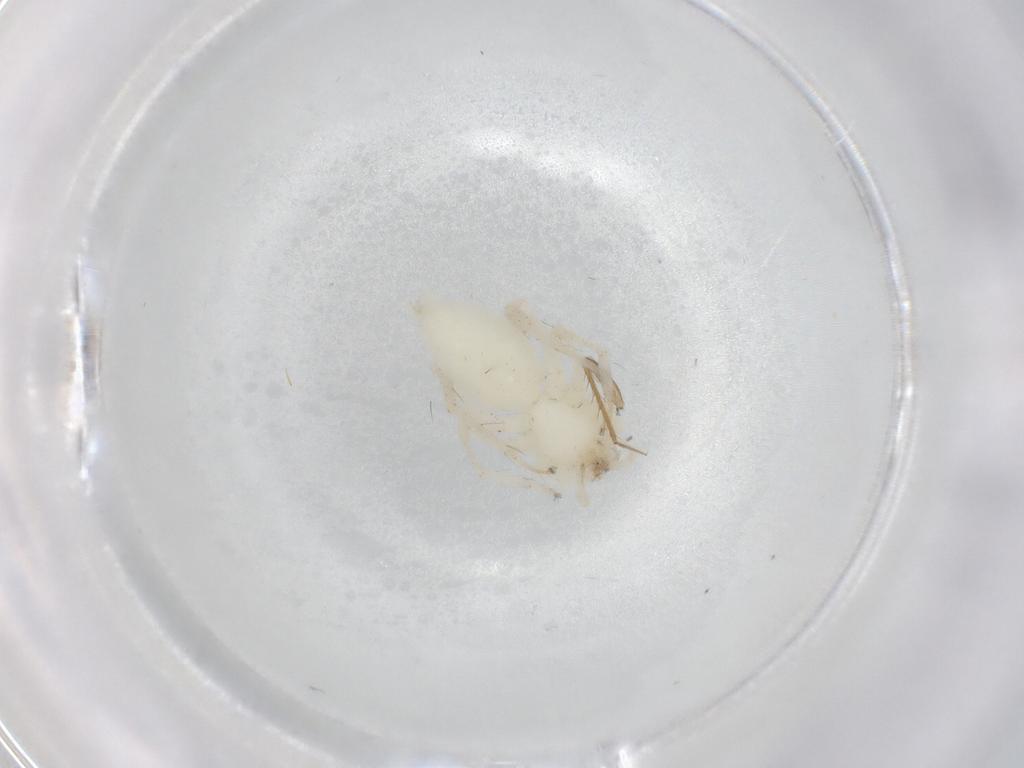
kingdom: Animalia
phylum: Arthropoda
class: Arachnida
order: Araneae
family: Anyphaenidae
